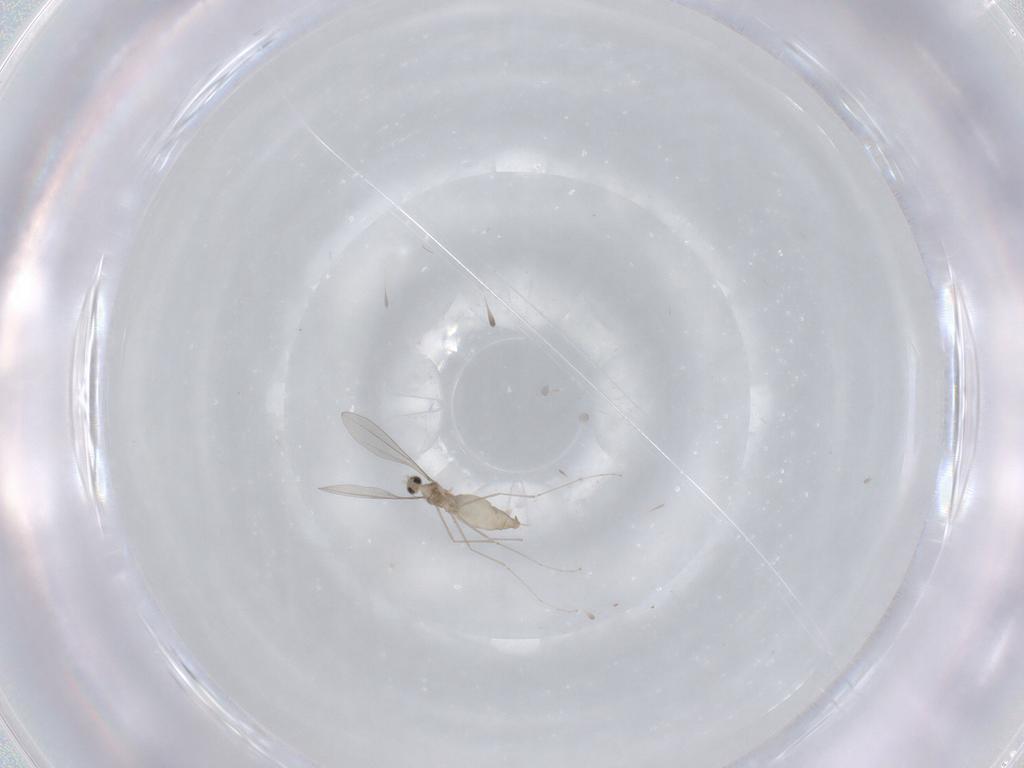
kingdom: Animalia
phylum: Arthropoda
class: Insecta
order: Diptera
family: Cecidomyiidae
